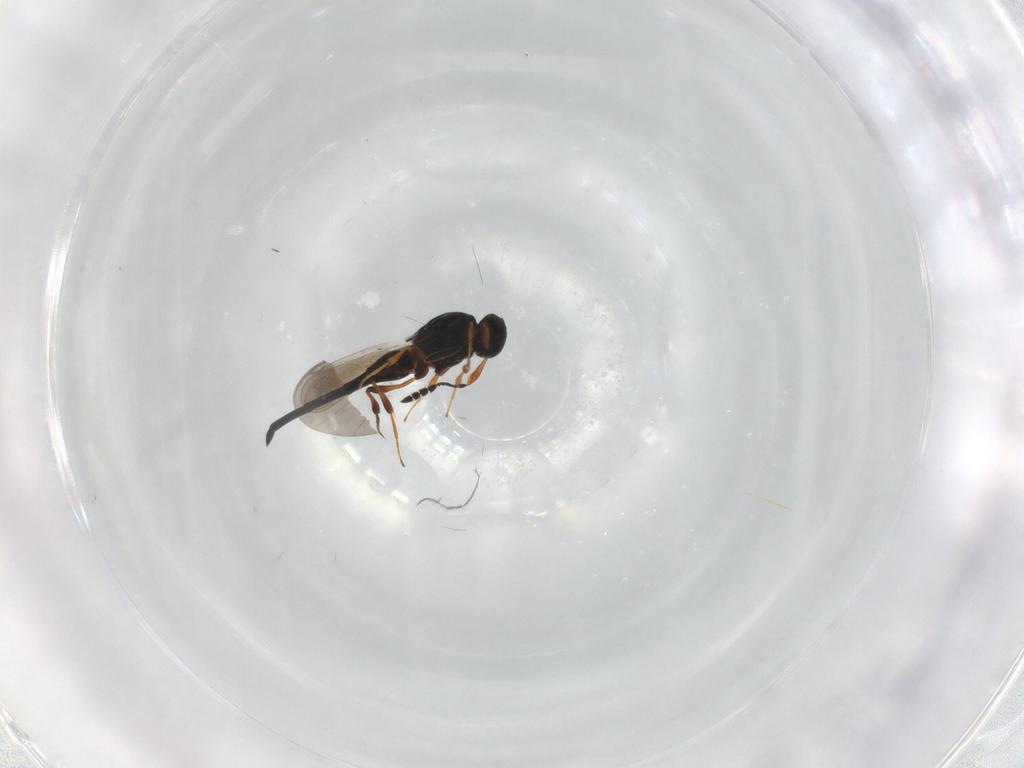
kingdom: Animalia
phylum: Arthropoda
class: Insecta
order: Hymenoptera
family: Platygastridae
